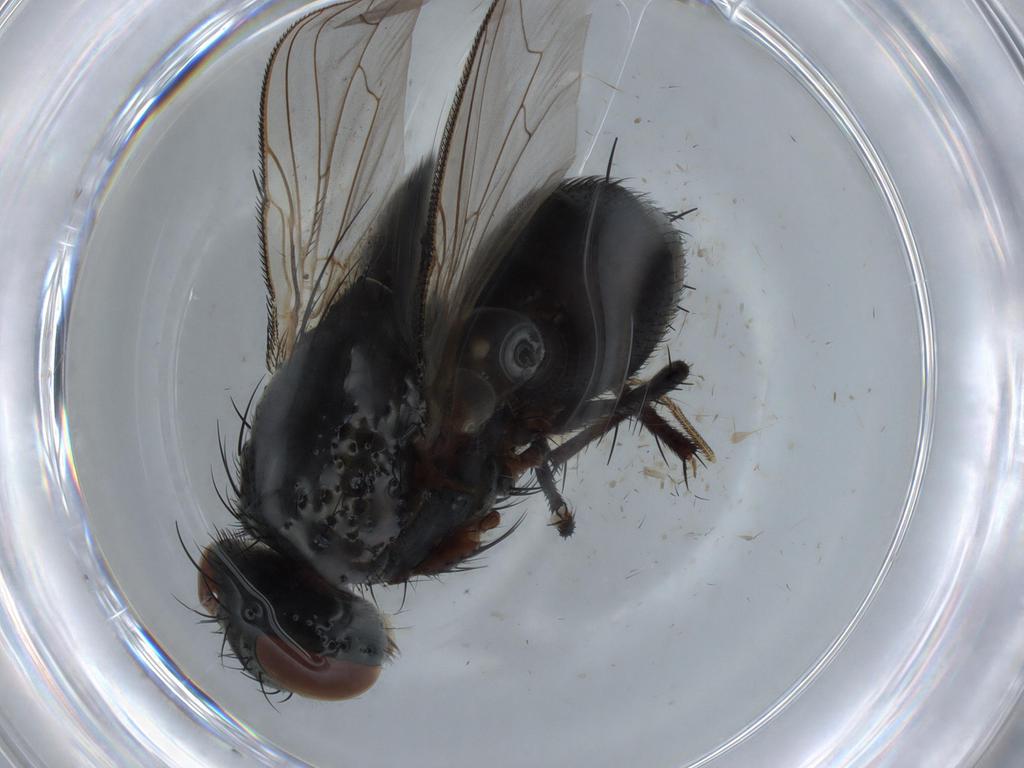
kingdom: Animalia
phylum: Arthropoda
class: Insecta
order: Diptera
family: Sarcophagidae
